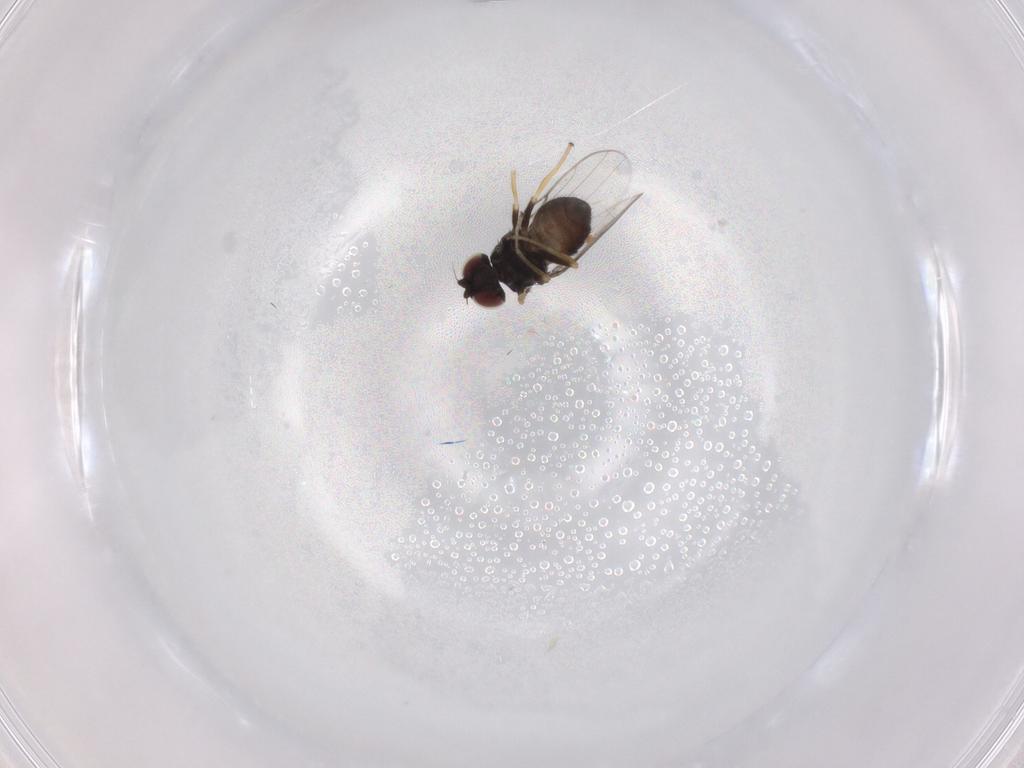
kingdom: Animalia
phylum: Arthropoda
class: Insecta
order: Diptera
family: Chloropidae
